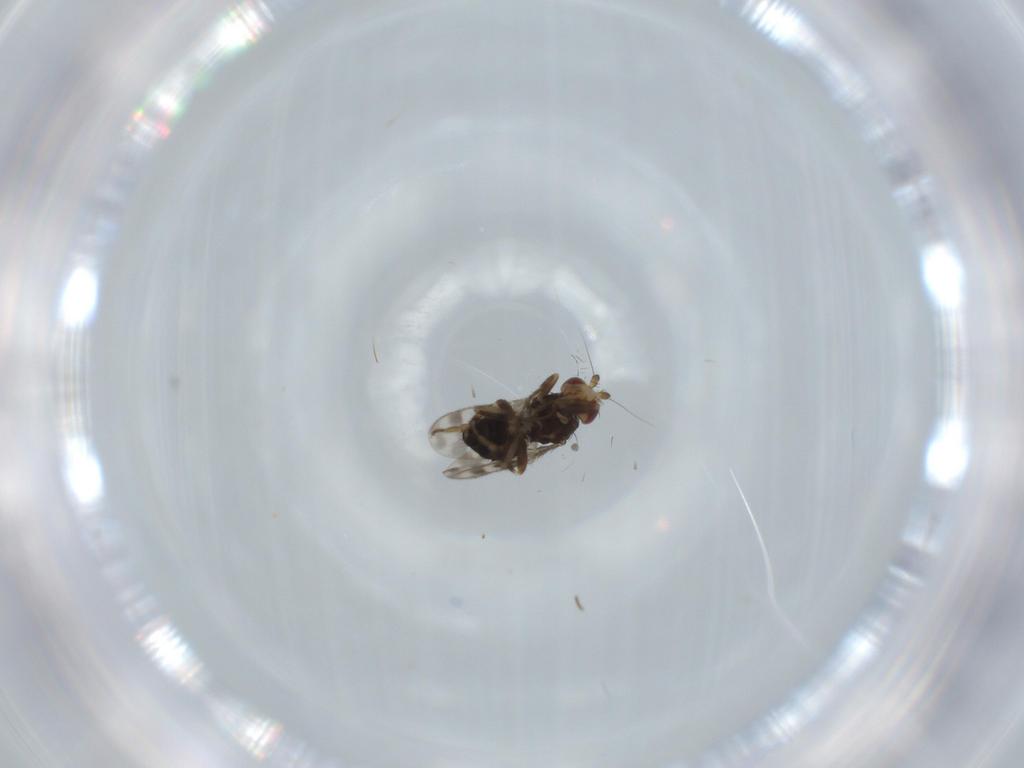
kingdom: Animalia
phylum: Arthropoda
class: Insecta
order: Diptera
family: Sphaeroceridae
